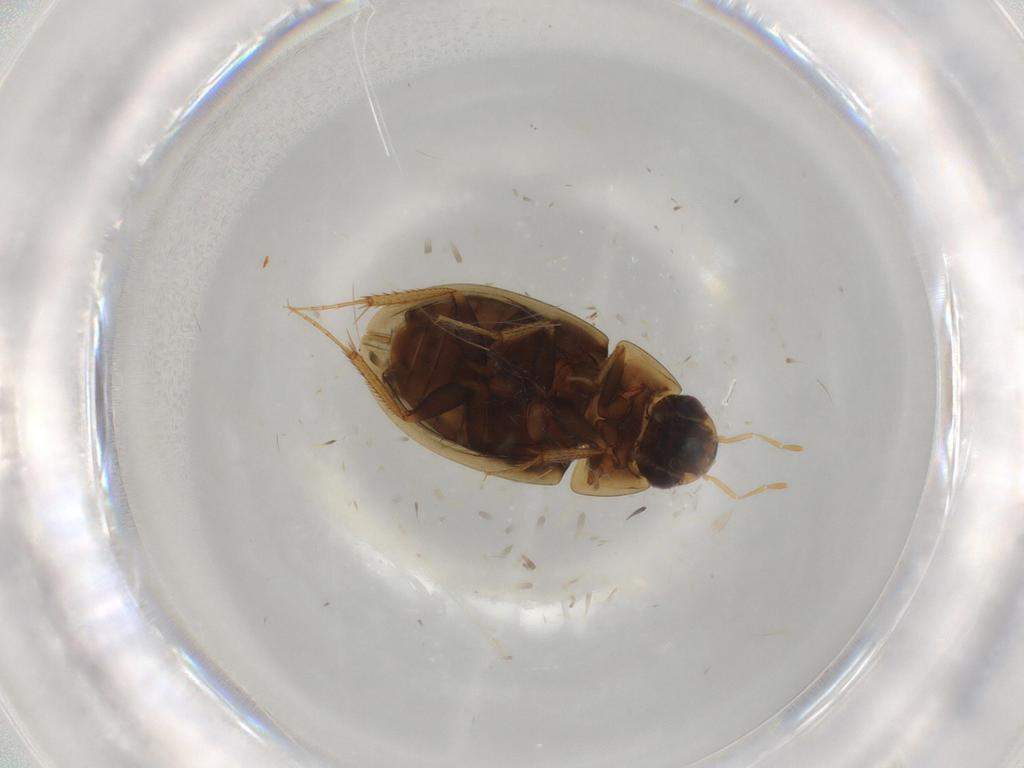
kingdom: Animalia
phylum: Arthropoda
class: Insecta
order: Coleoptera
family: Hydrophilidae
